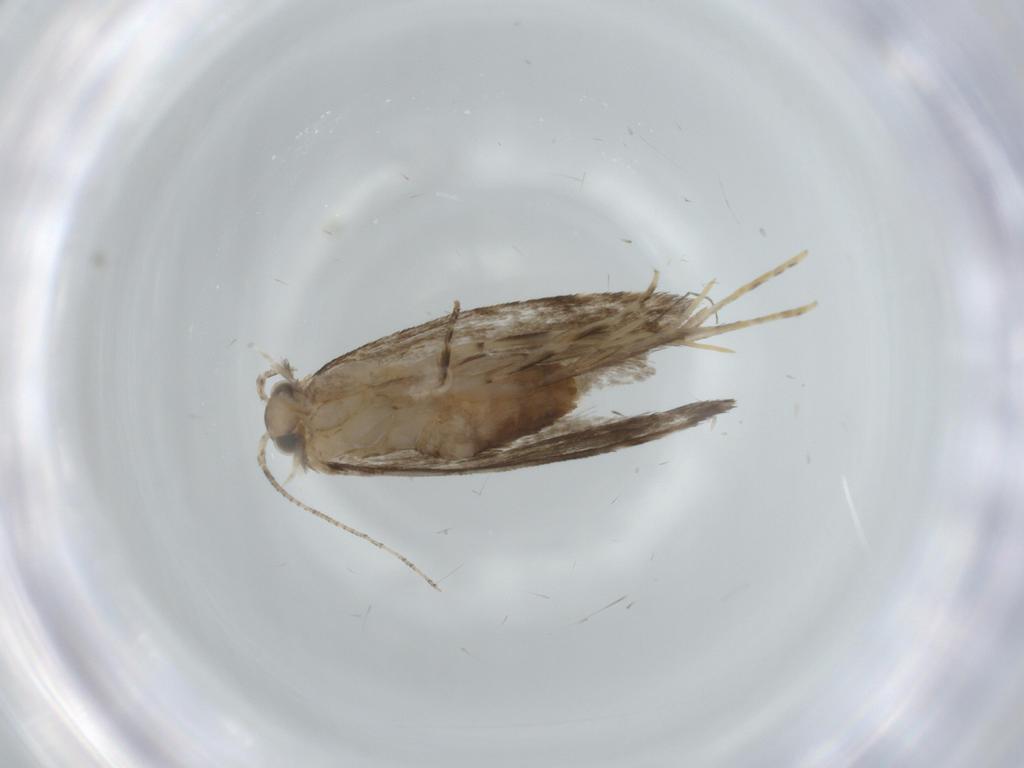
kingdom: Animalia
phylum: Arthropoda
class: Insecta
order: Lepidoptera
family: Tineidae
